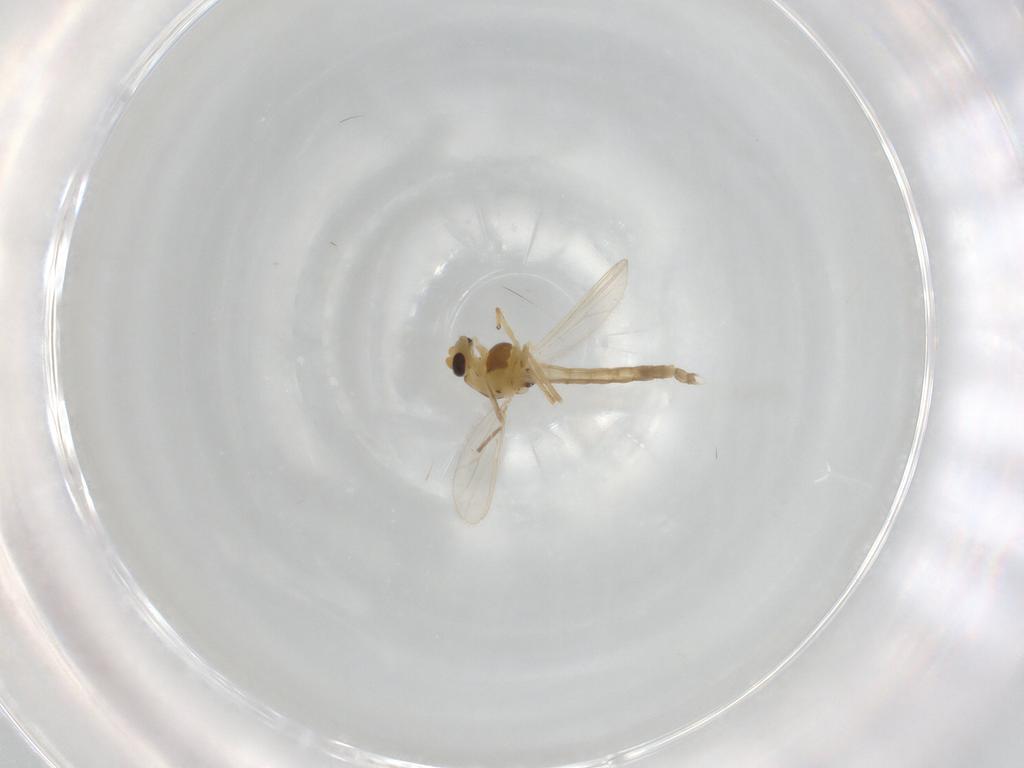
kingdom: Animalia
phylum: Arthropoda
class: Insecta
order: Diptera
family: Chironomidae
